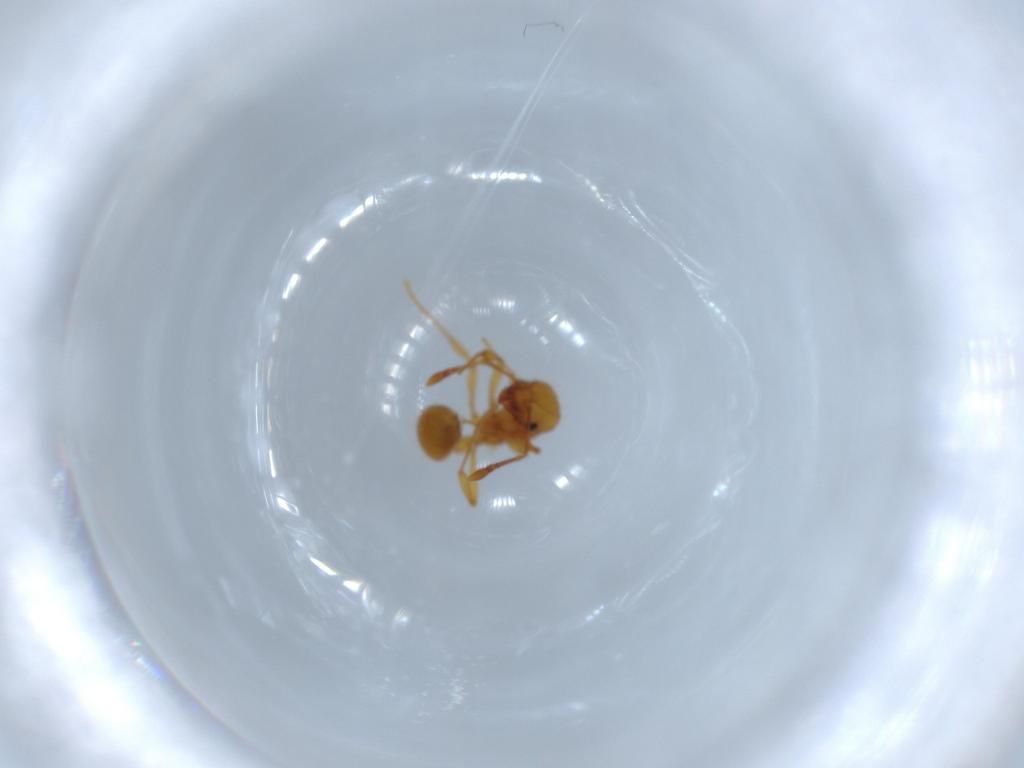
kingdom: Animalia
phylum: Arthropoda
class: Insecta
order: Hymenoptera
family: Formicidae
